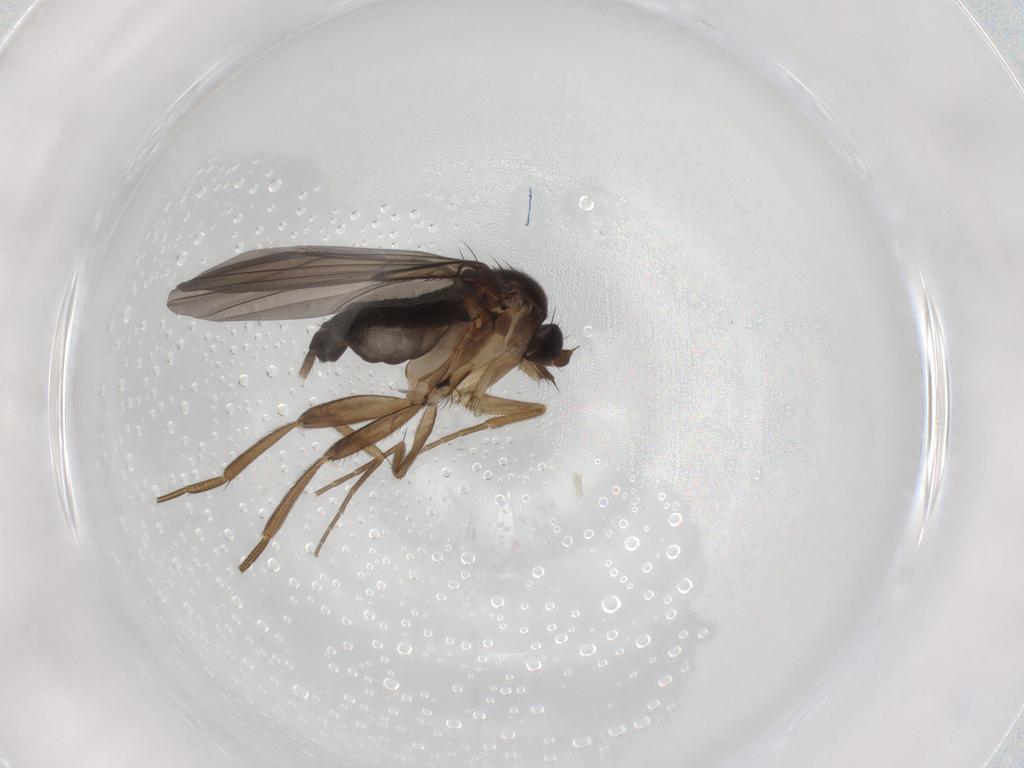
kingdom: Animalia
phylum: Arthropoda
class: Insecta
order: Diptera
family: Phoridae
